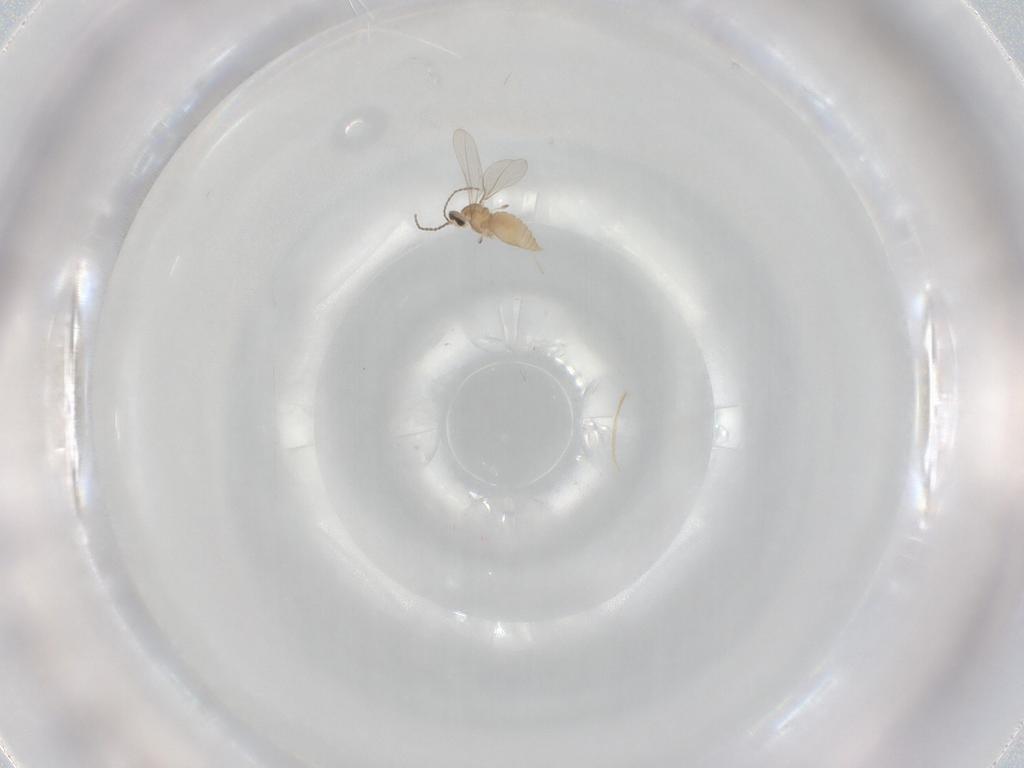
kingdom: Animalia
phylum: Arthropoda
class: Insecta
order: Diptera
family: Cecidomyiidae
